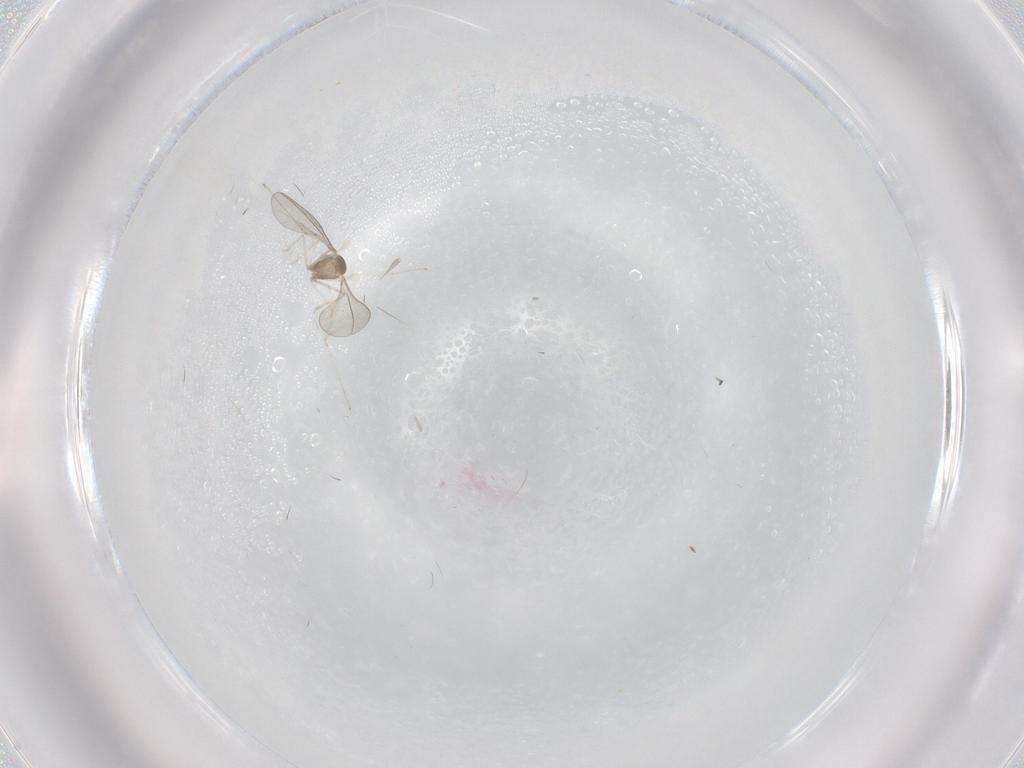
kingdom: Animalia
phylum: Arthropoda
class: Insecta
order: Diptera
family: Cecidomyiidae
